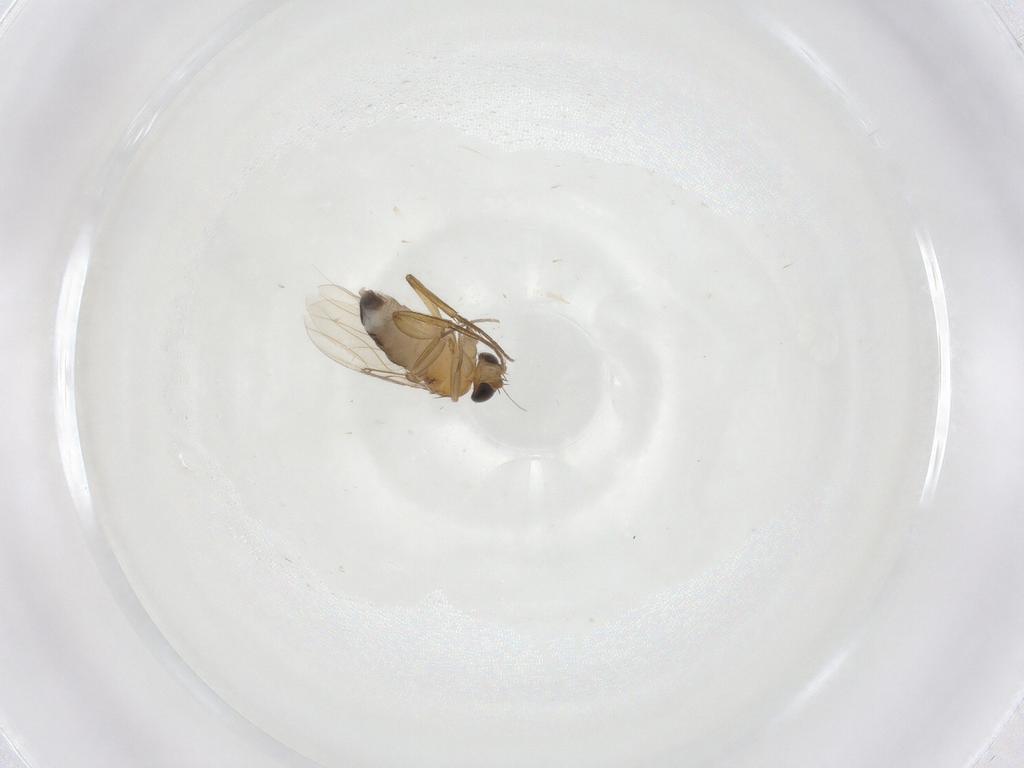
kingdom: Animalia
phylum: Arthropoda
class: Insecta
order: Diptera
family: Phoridae
